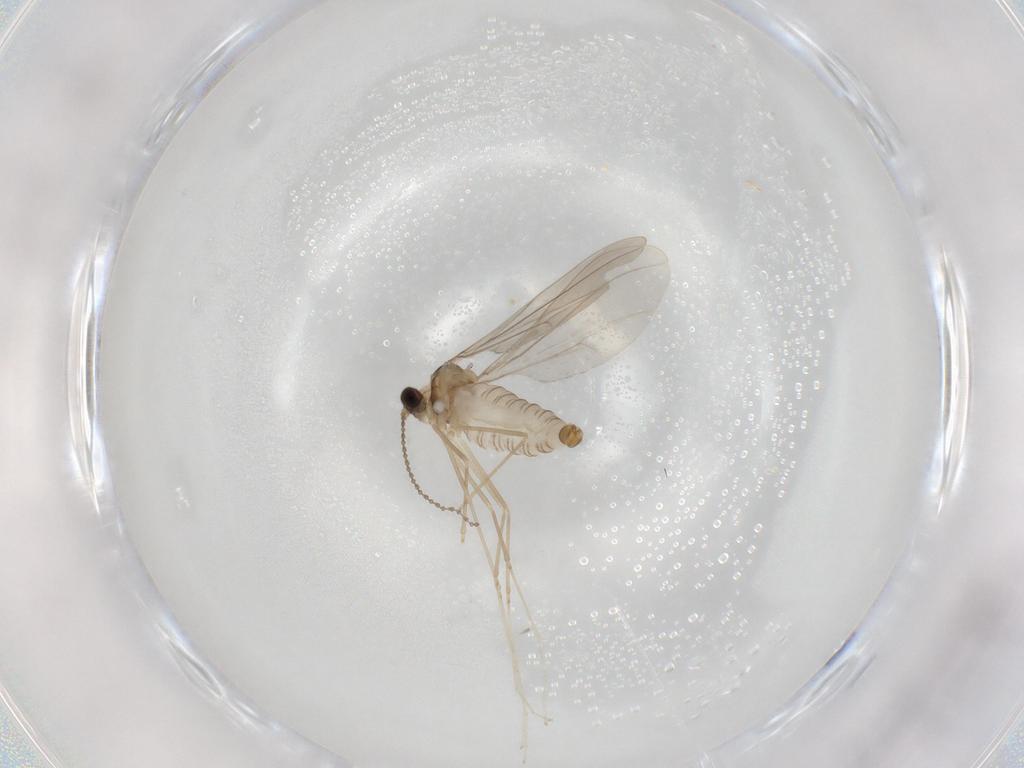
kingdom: Animalia
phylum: Arthropoda
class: Insecta
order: Diptera
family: Cecidomyiidae
